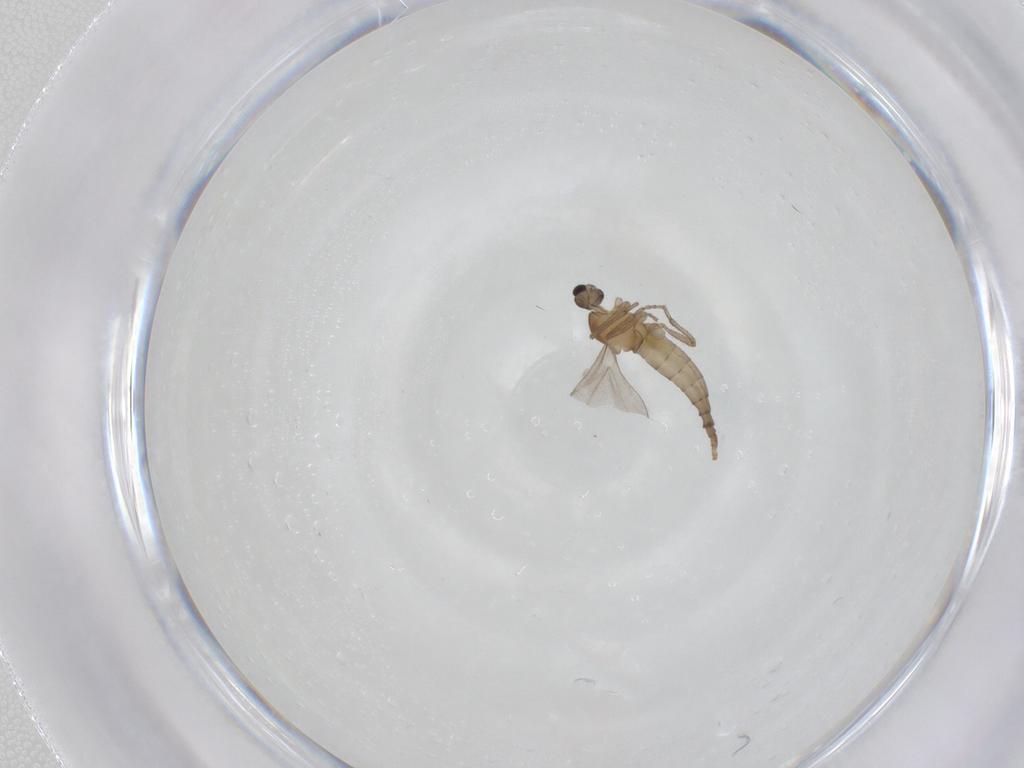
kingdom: Animalia
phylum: Arthropoda
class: Insecta
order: Diptera
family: Cecidomyiidae
